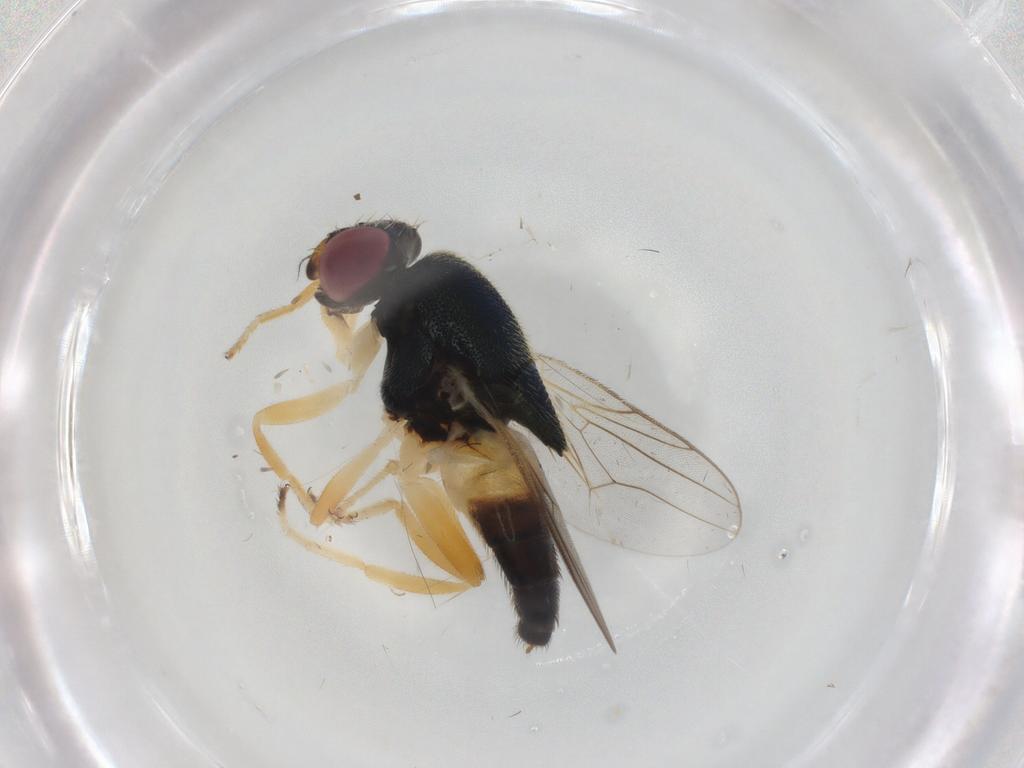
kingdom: Animalia
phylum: Arthropoda
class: Insecta
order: Diptera
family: Chloropidae
